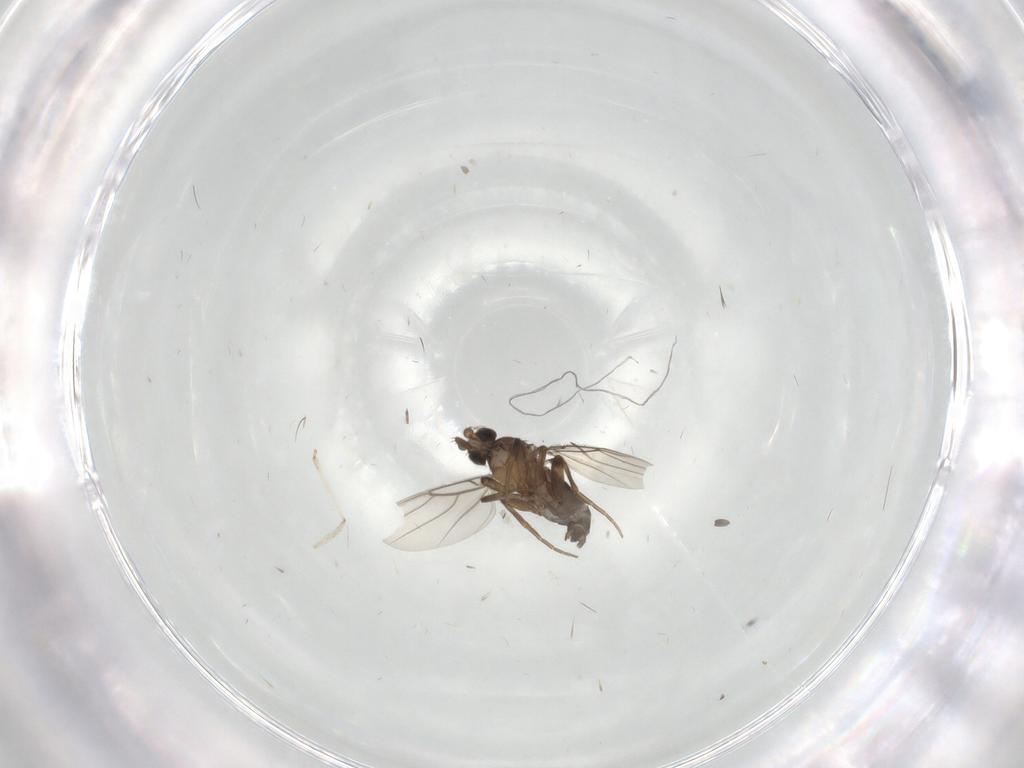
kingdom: Animalia
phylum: Arthropoda
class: Insecta
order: Diptera
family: Phoridae
